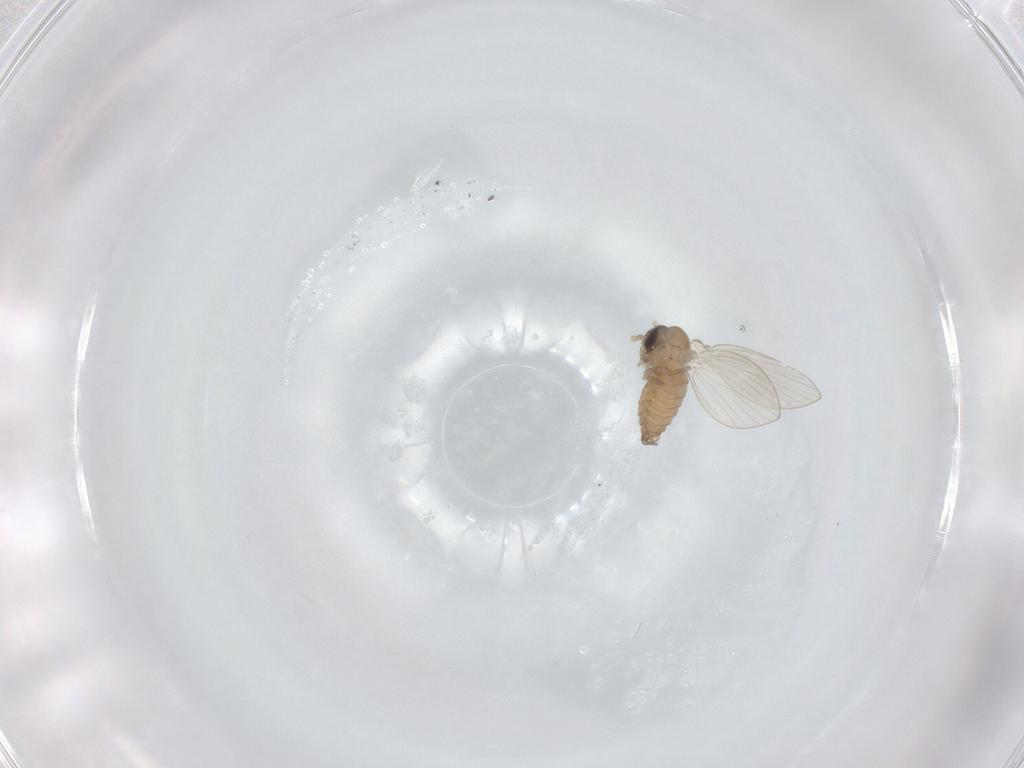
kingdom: Animalia
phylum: Arthropoda
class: Insecta
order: Diptera
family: Psychodidae
